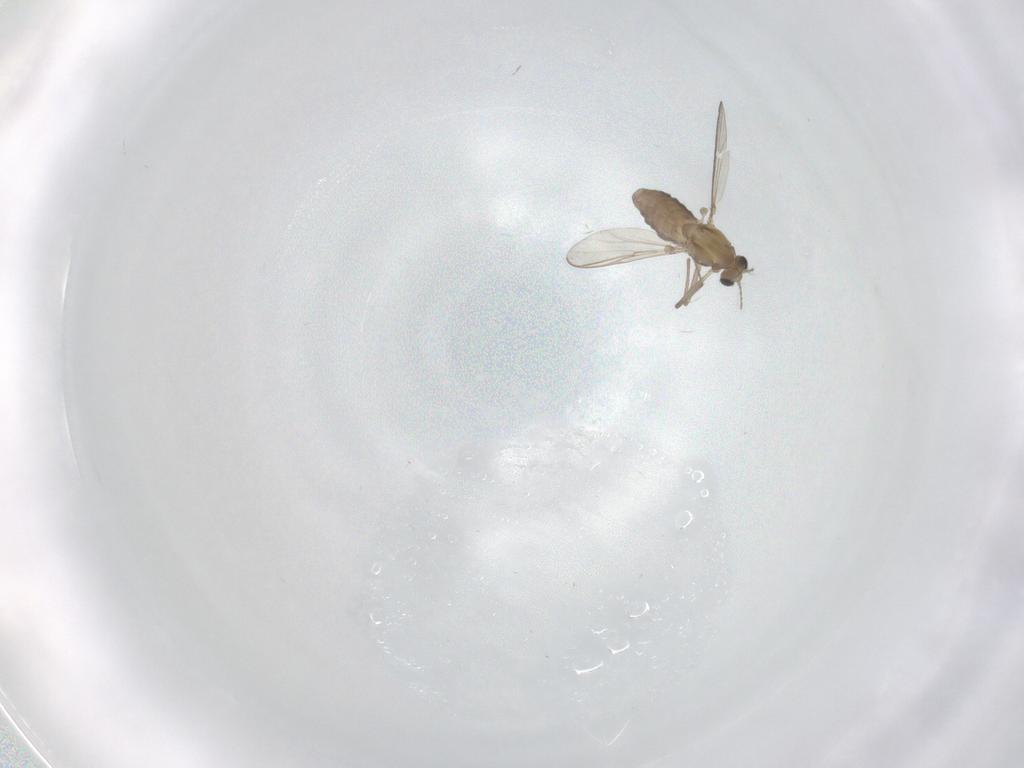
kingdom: Animalia
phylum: Arthropoda
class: Insecta
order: Diptera
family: Chironomidae
